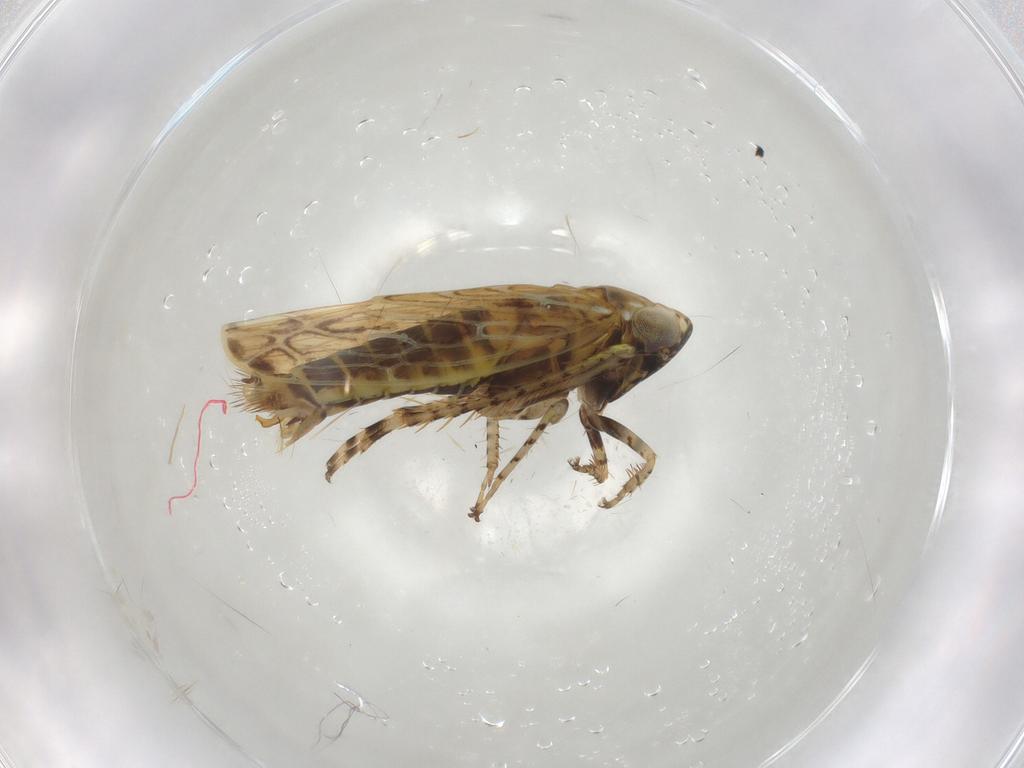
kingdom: Animalia
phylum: Arthropoda
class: Insecta
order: Hemiptera
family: Cicadellidae
